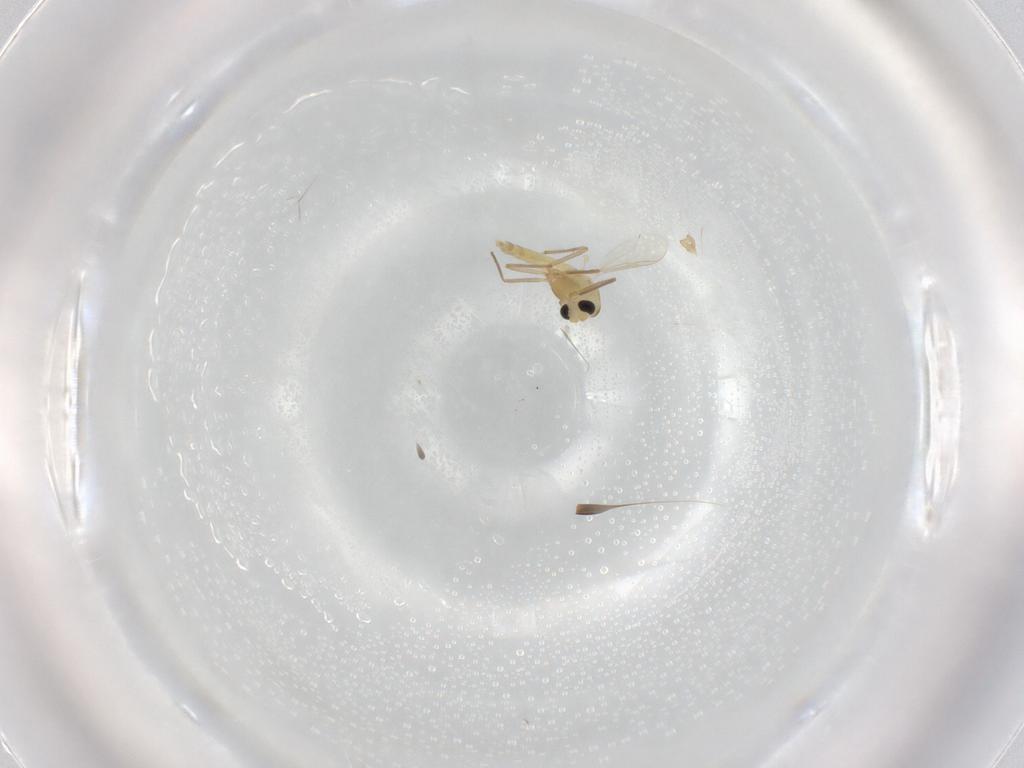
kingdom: Animalia
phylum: Arthropoda
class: Insecta
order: Diptera
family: Chironomidae
